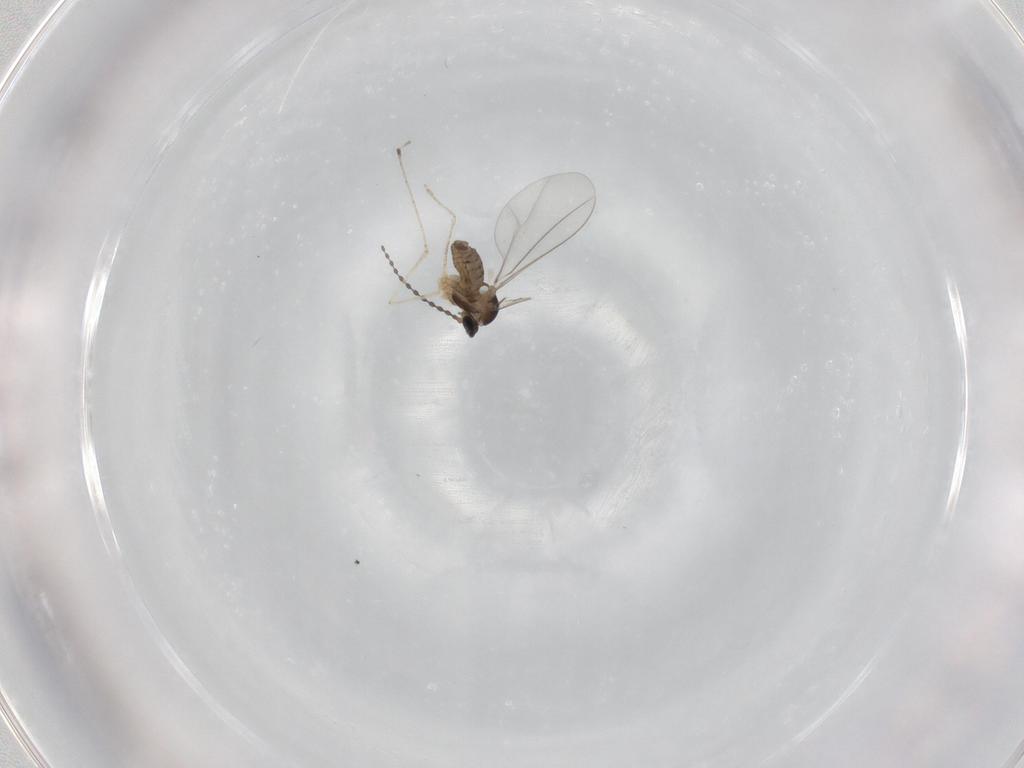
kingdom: Animalia
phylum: Arthropoda
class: Insecta
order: Diptera
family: Cecidomyiidae
